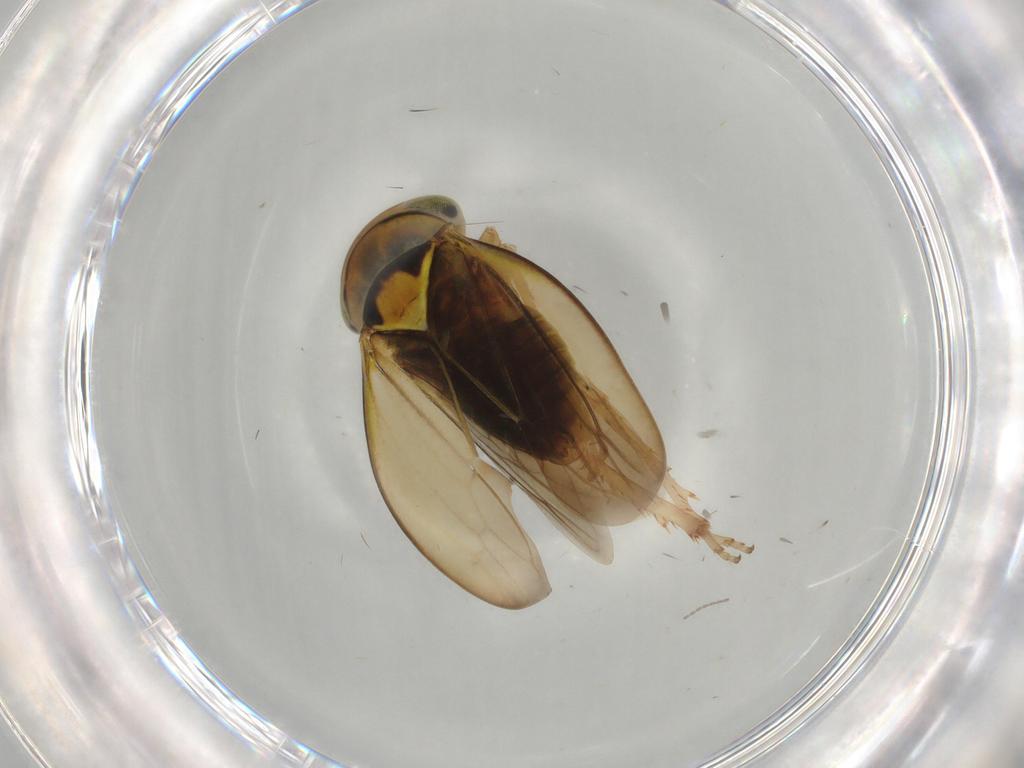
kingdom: Animalia
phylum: Arthropoda
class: Insecta
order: Hemiptera
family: Cicadellidae
